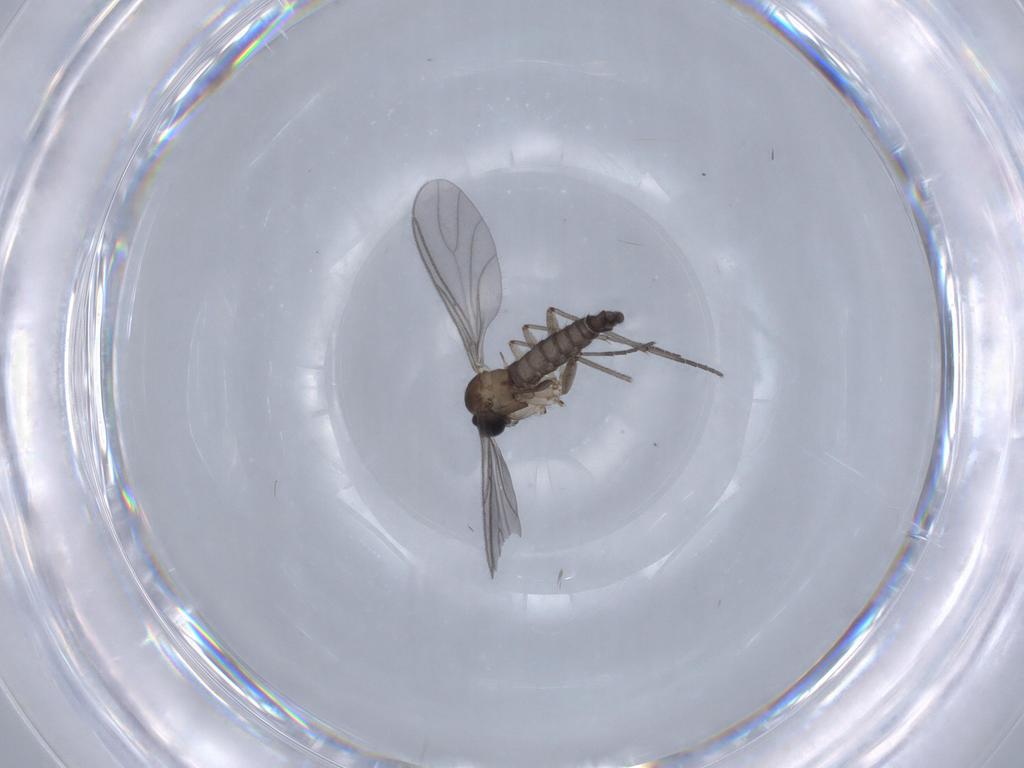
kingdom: Animalia
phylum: Arthropoda
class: Insecta
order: Diptera
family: Sciaridae
